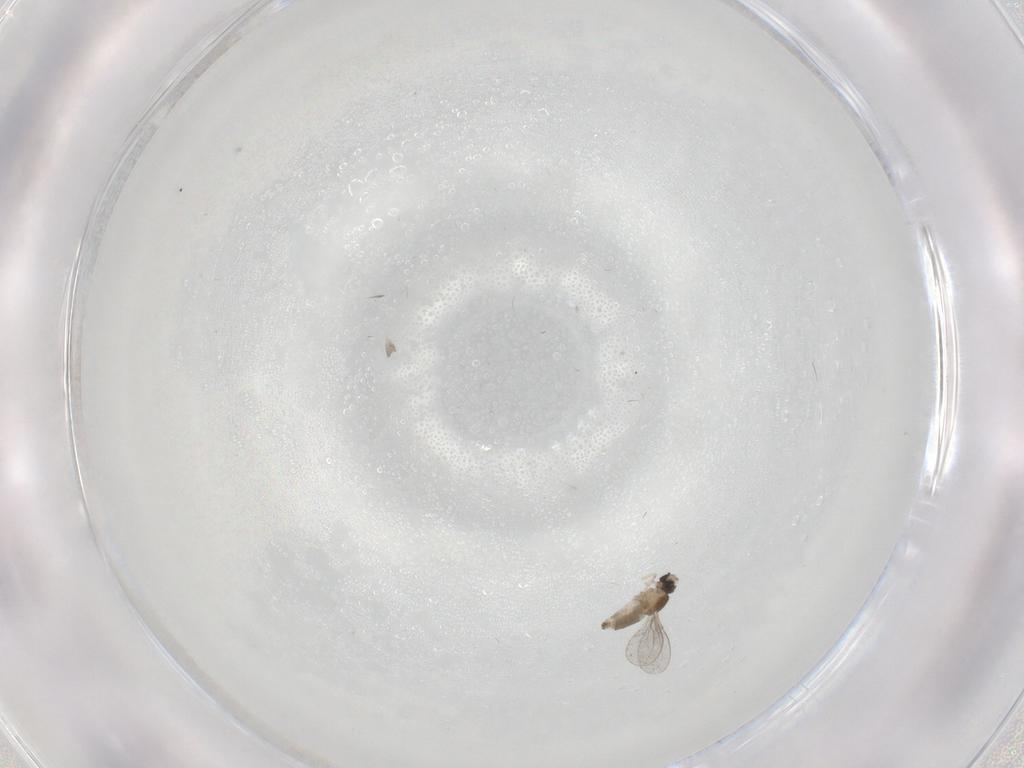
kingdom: Animalia
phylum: Arthropoda
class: Insecta
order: Diptera
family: Cecidomyiidae
